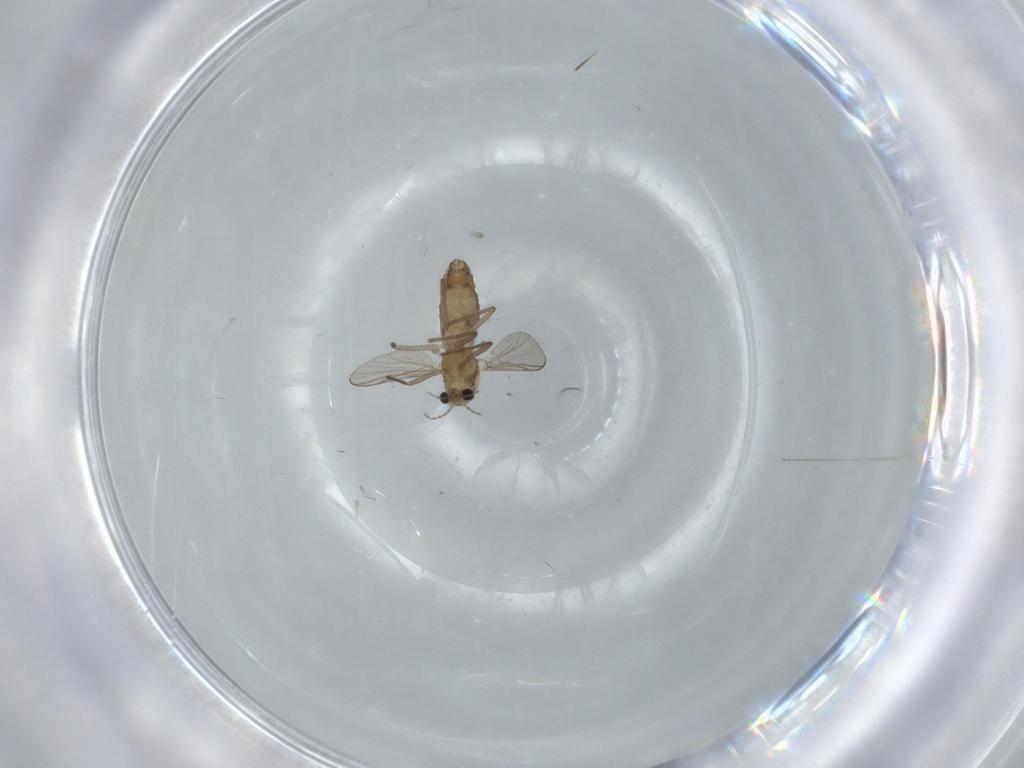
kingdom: Animalia
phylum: Arthropoda
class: Insecta
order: Diptera
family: Chironomidae
